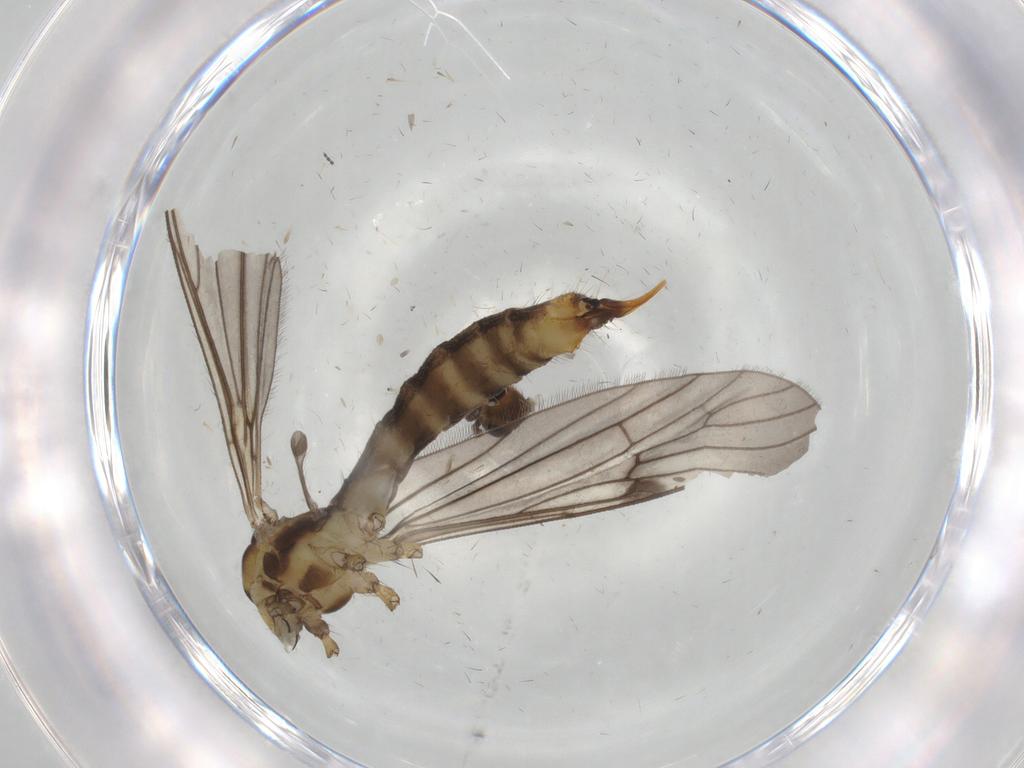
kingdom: Animalia
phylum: Arthropoda
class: Insecta
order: Diptera
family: Limoniidae
